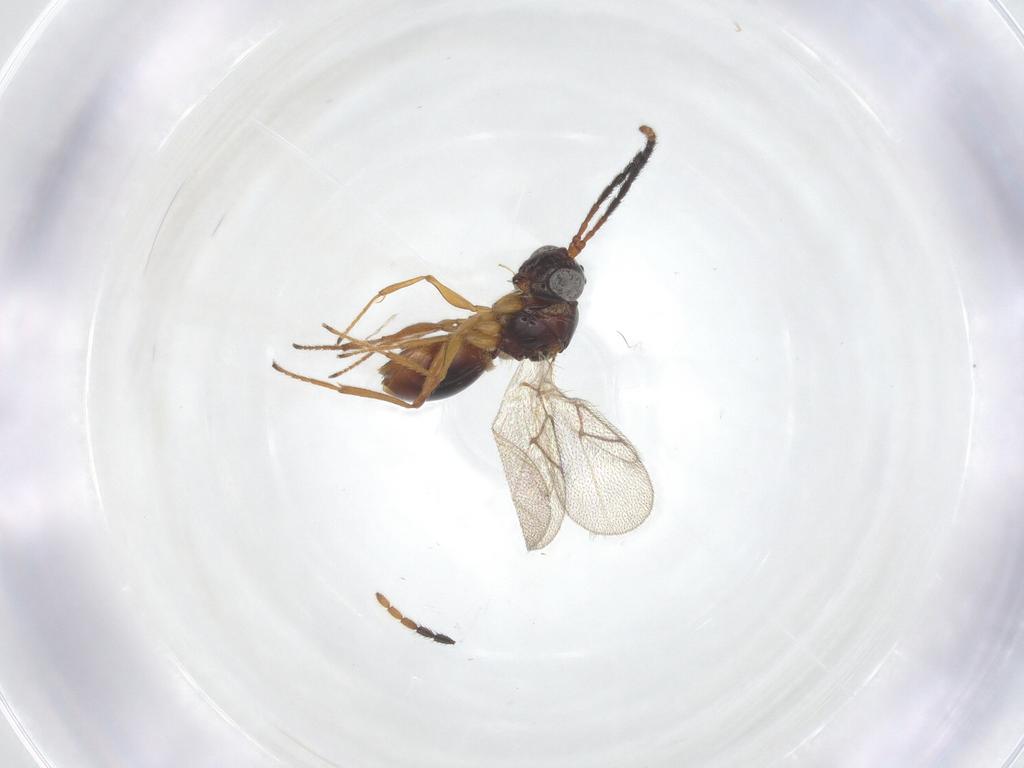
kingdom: Animalia
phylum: Arthropoda
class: Insecta
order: Hymenoptera
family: Figitidae
